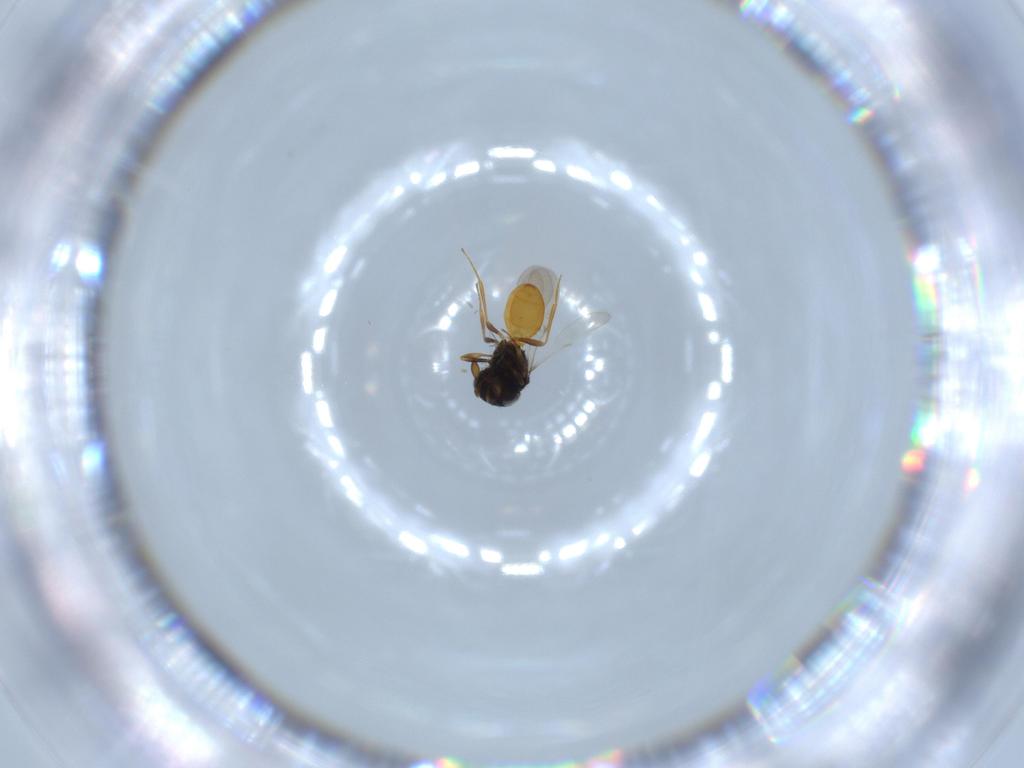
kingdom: Animalia
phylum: Arthropoda
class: Insecta
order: Hymenoptera
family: Scelionidae
